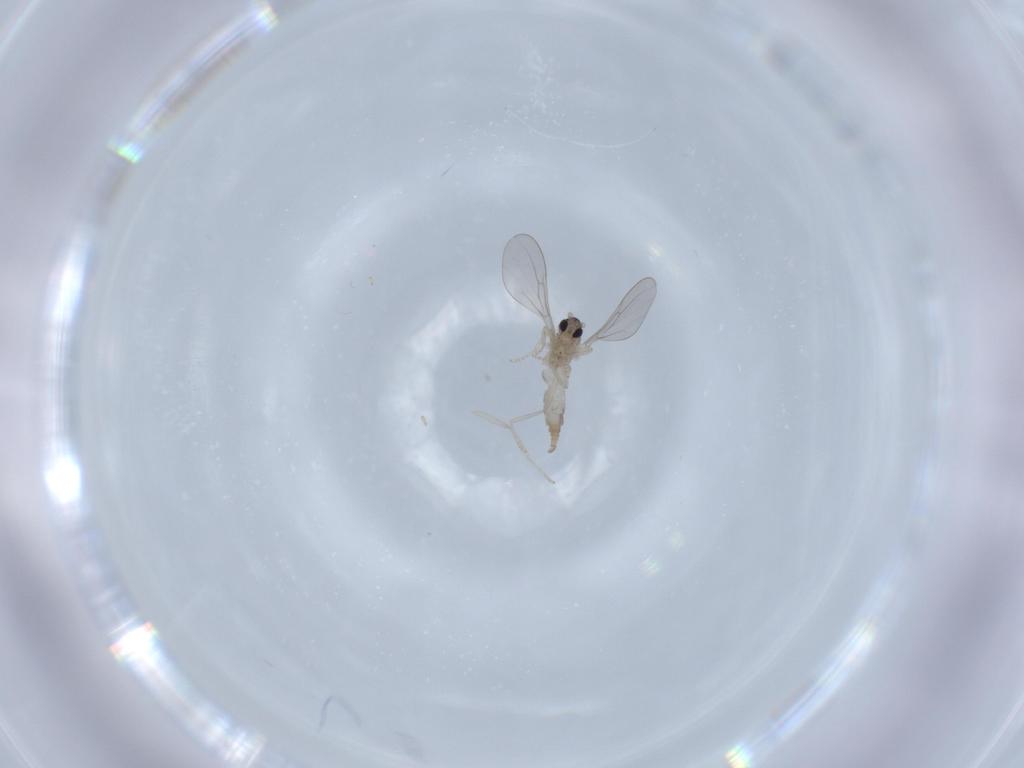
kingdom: Animalia
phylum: Arthropoda
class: Insecta
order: Diptera
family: Cecidomyiidae
